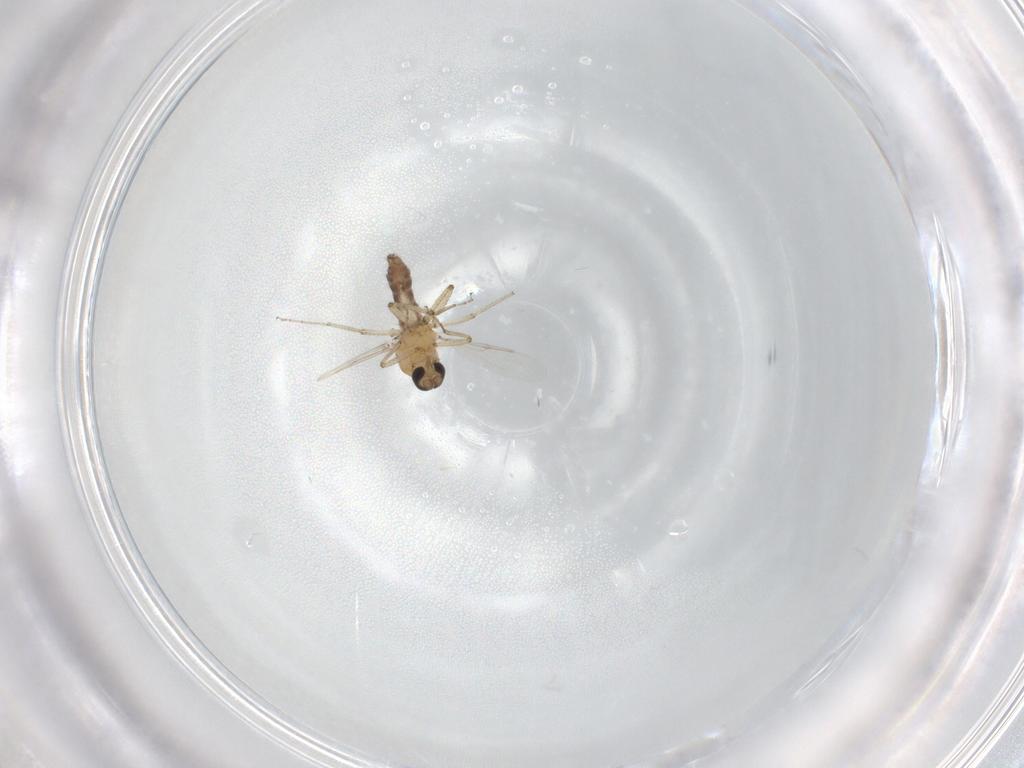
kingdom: Animalia
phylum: Arthropoda
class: Insecta
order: Diptera
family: Ceratopogonidae
